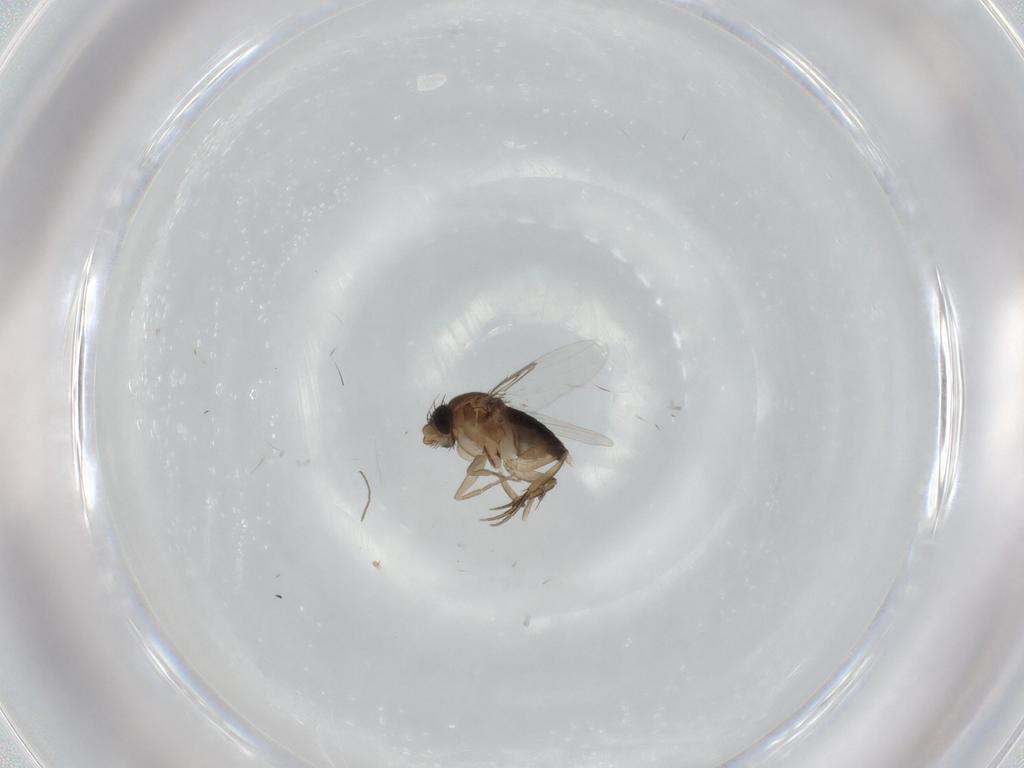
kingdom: Animalia
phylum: Arthropoda
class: Insecta
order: Diptera
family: Phoridae
